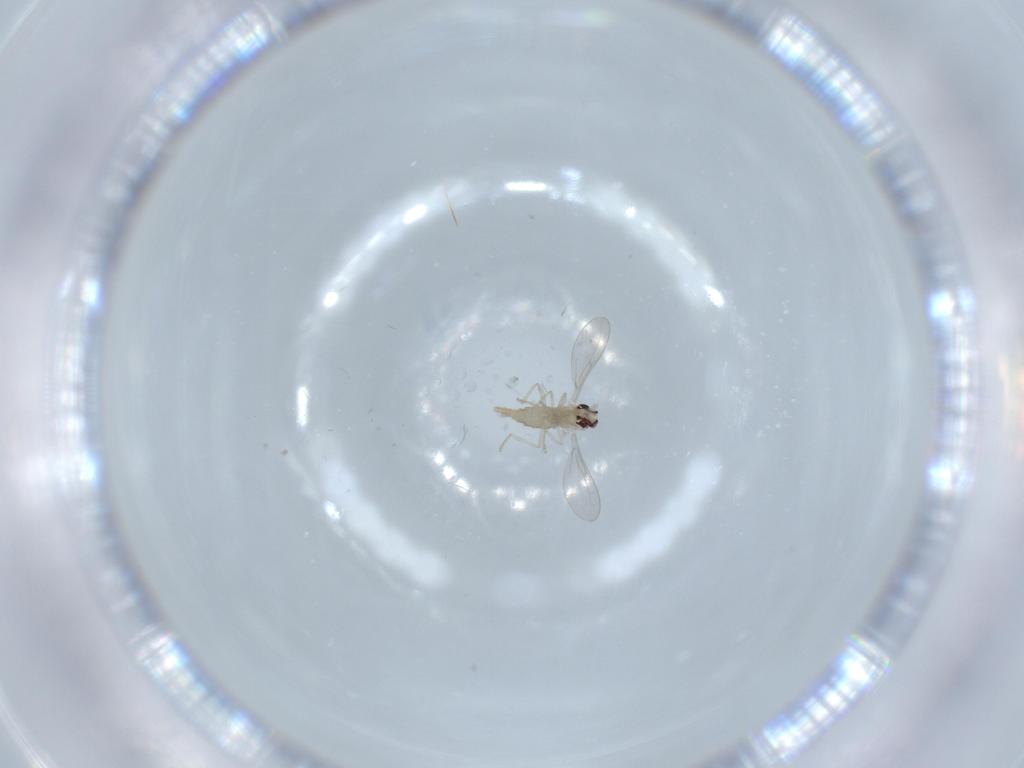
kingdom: Animalia
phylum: Arthropoda
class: Insecta
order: Diptera
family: Cecidomyiidae
